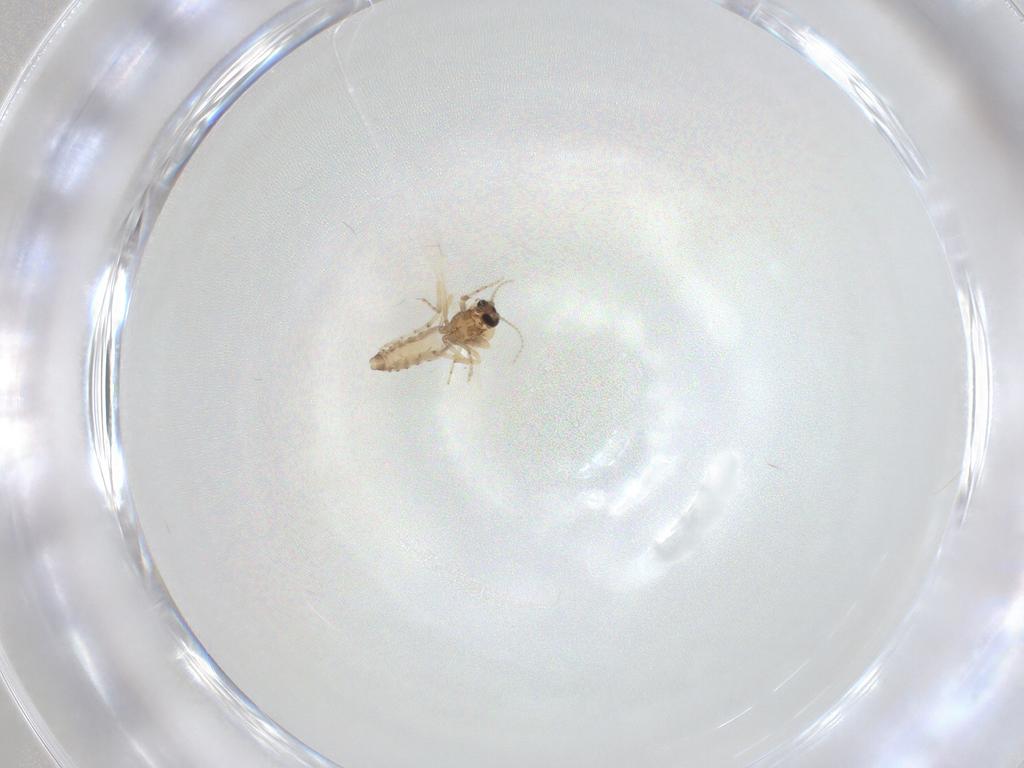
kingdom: Animalia
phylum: Arthropoda
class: Insecta
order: Diptera
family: Ceratopogonidae
